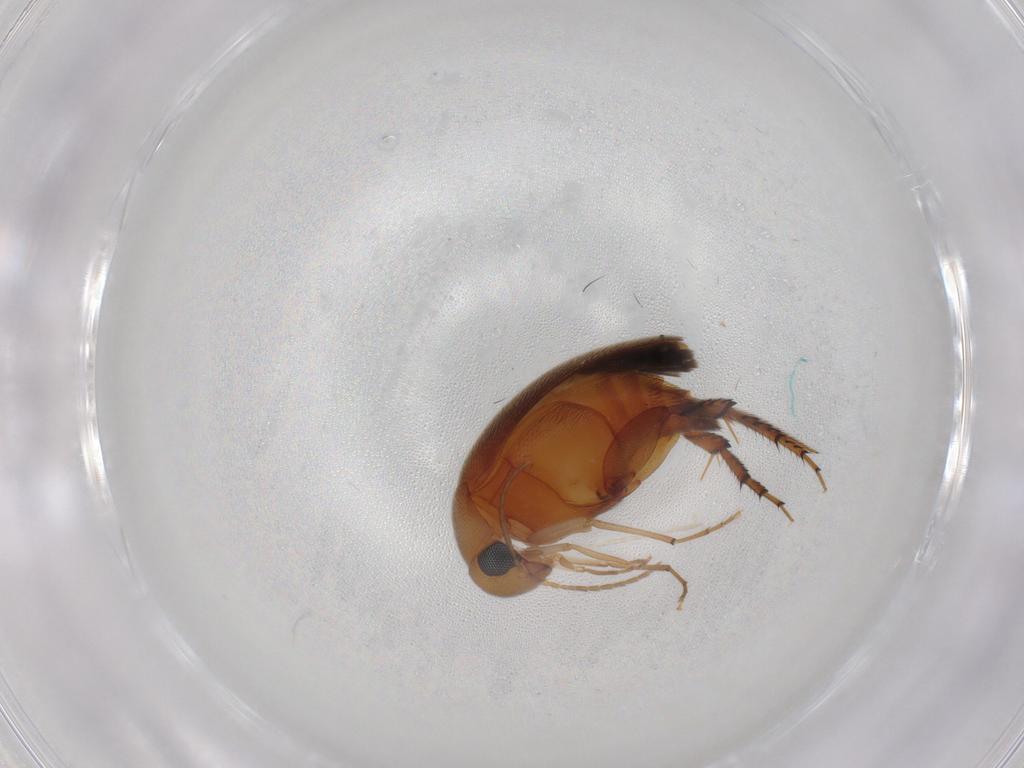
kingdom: Animalia
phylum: Arthropoda
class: Insecta
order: Coleoptera
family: Mordellidae
